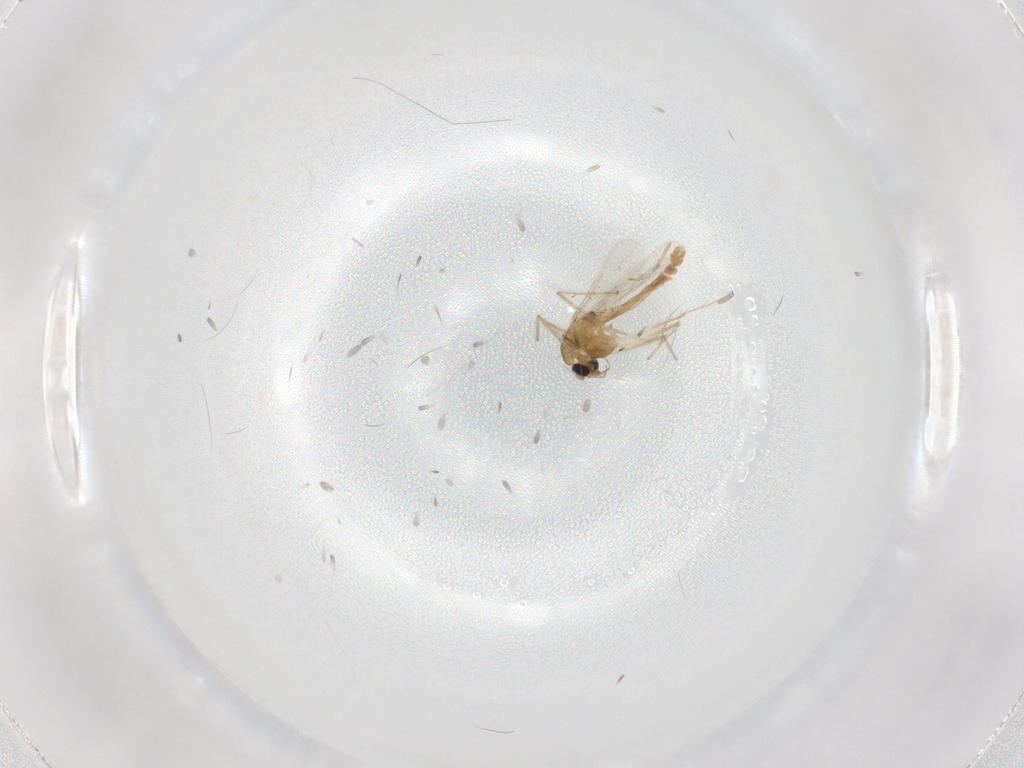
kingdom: Animalia
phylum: Arthropoda
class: Insecta
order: Diptera
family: Chironomidae
